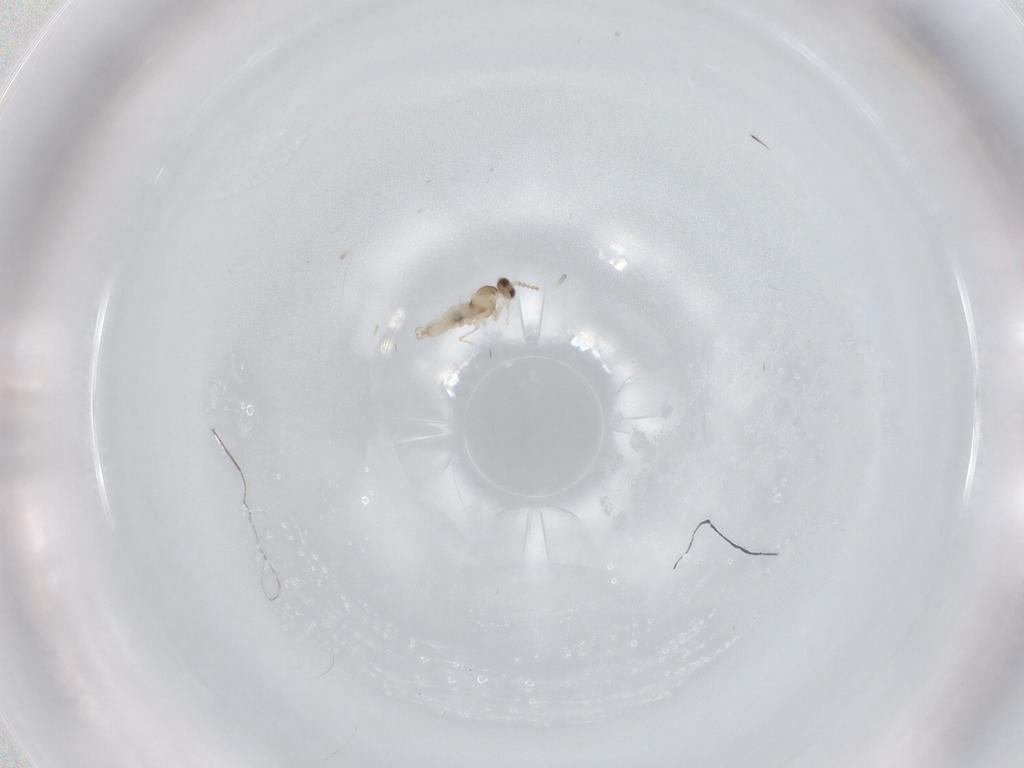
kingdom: Animalia
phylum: Arthropoda
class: Insecta
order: Diptera
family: Cecidomyiidae
